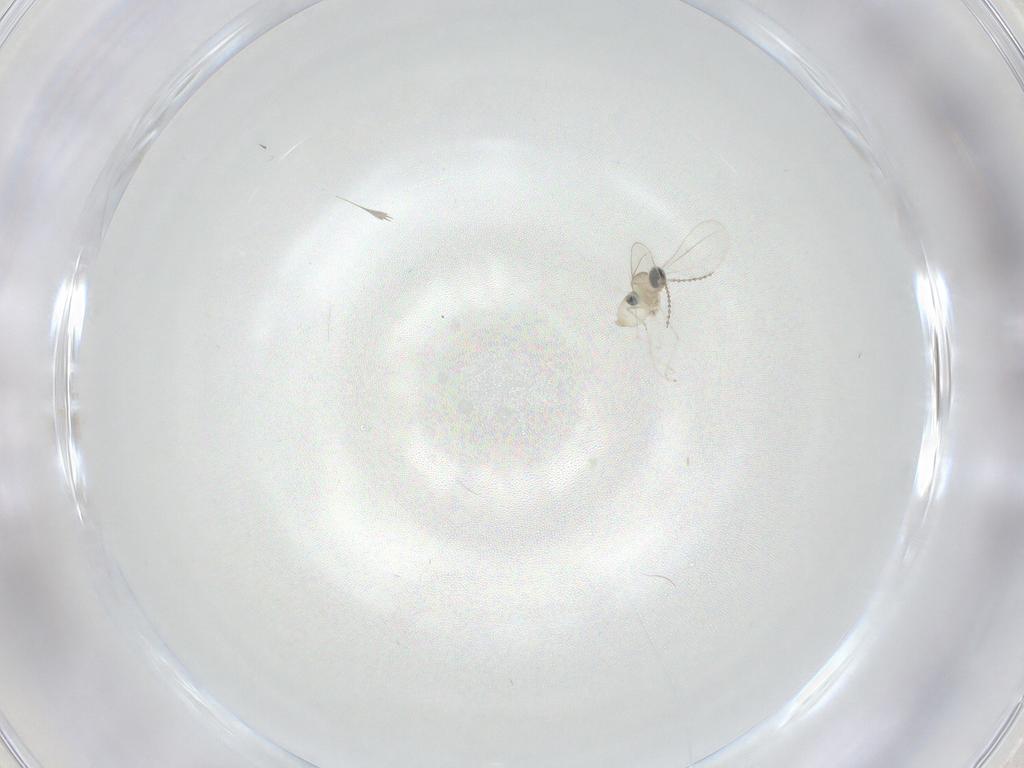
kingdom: Animalia
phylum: Arthropoda
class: Insecta
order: Diptera
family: Cecidomyiidae
